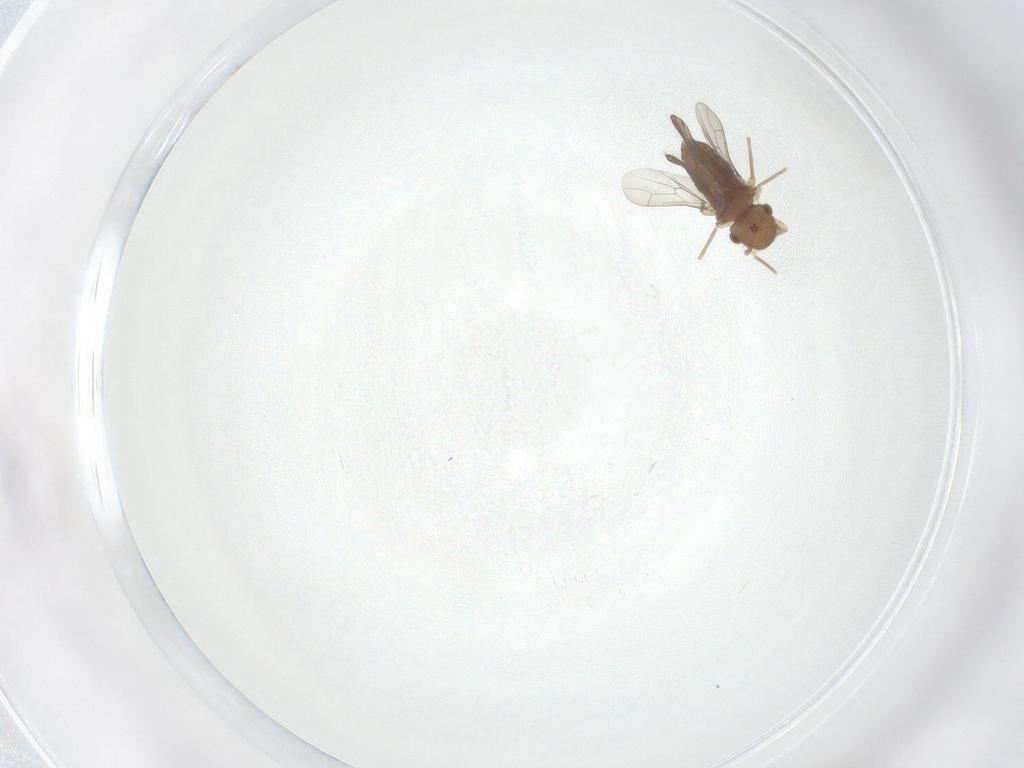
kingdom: Animalia
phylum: Arthropoda
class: Insecta
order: Psocodea
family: Ectopsocidae
